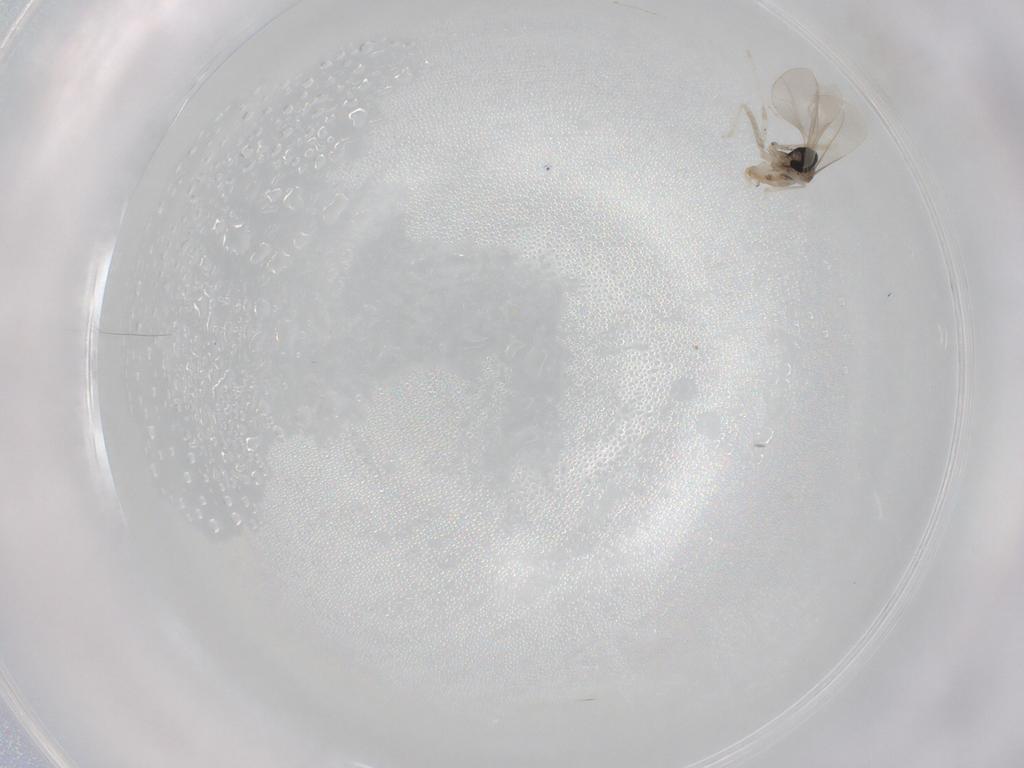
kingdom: Animalia
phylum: Arthropoda
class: Insecta
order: Diptera
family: Cecidomyiidae
